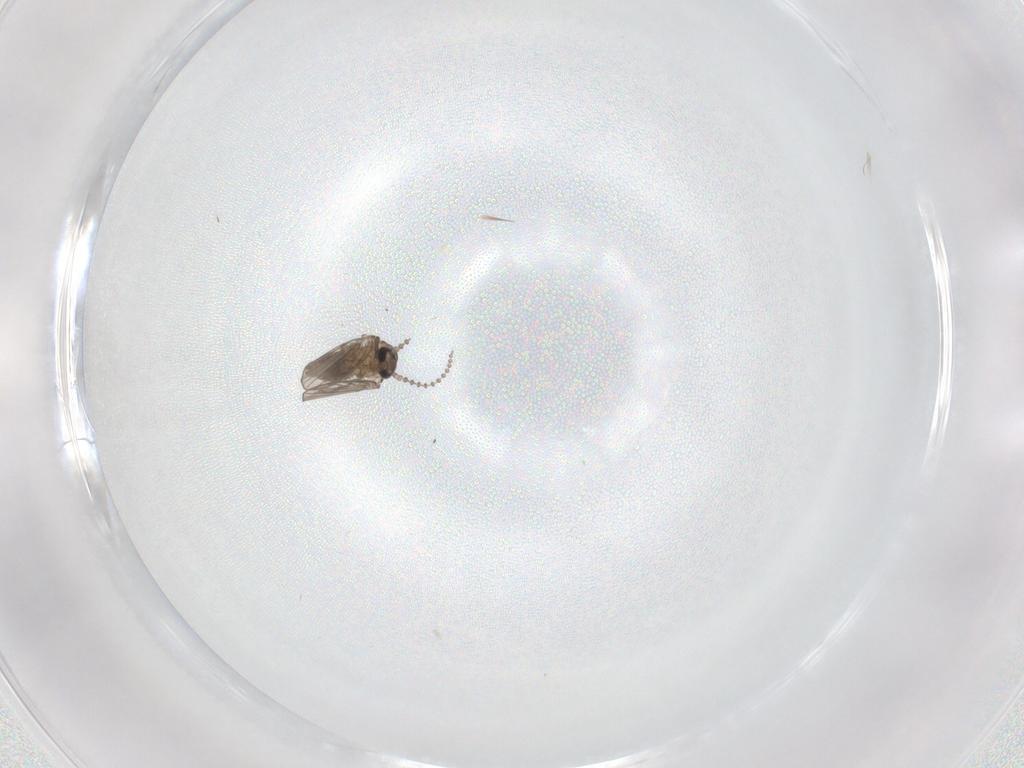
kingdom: Animalia
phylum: Arthropoda
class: Insecta
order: Diptera
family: Psychodidae
